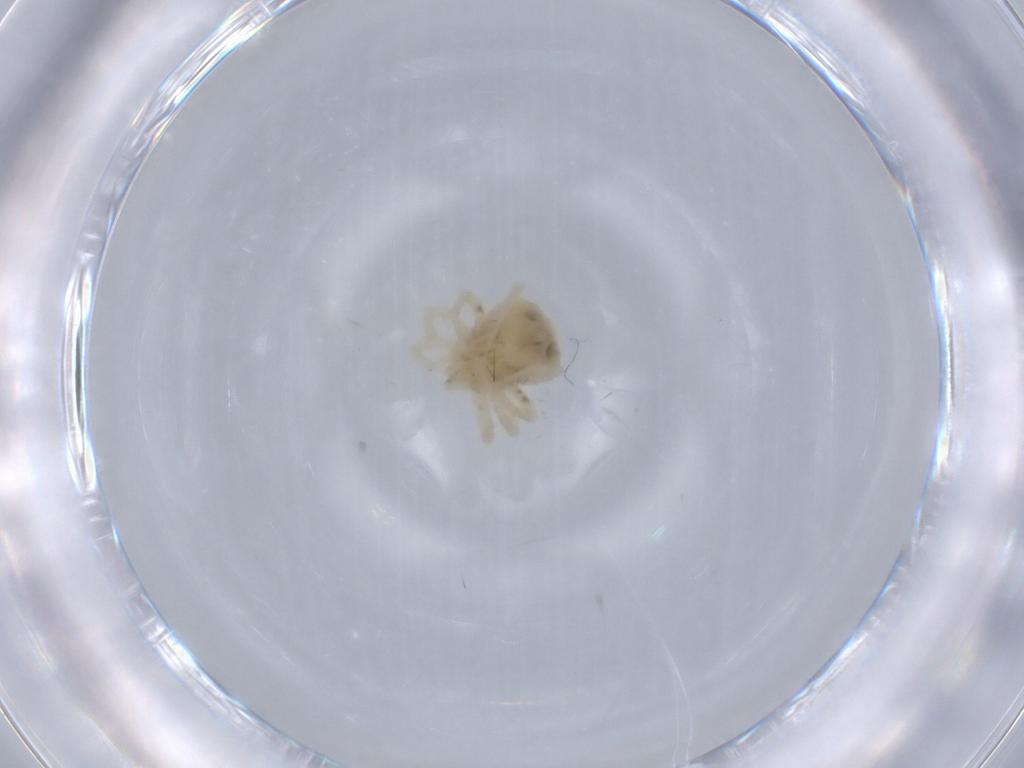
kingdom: Animalia
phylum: Arthropoda
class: Arachnida
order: Trombidiformes
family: Anystidae
